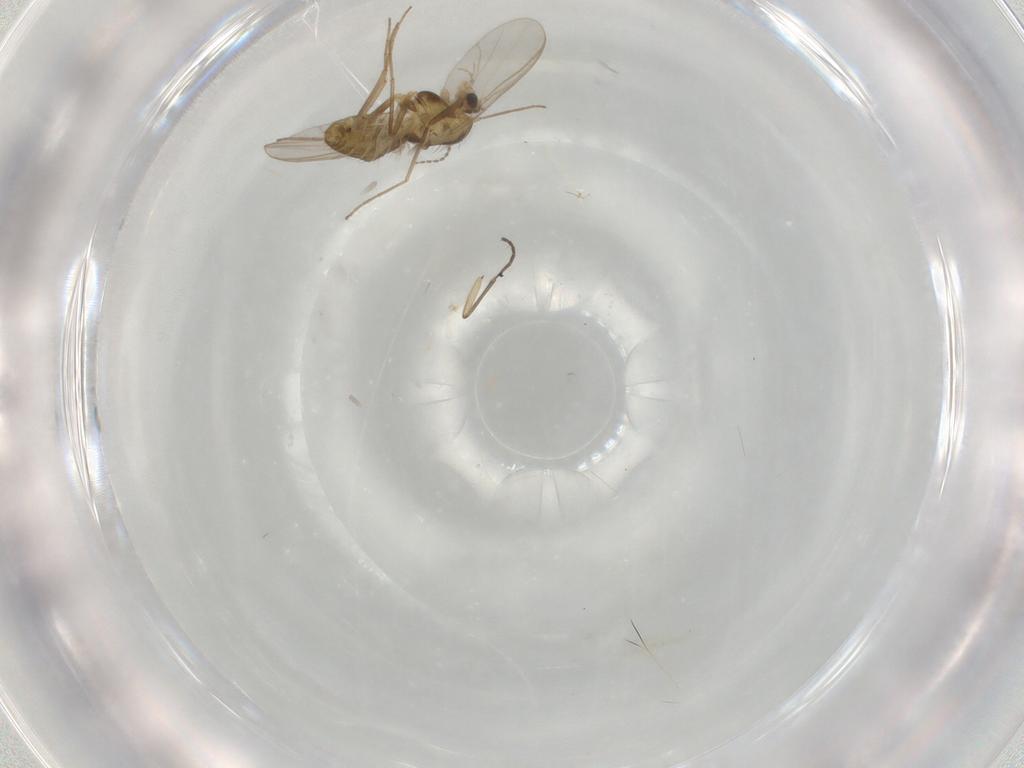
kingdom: Animalia
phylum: Arthropoda
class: Insecta
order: Diptera
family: Chironomidae
